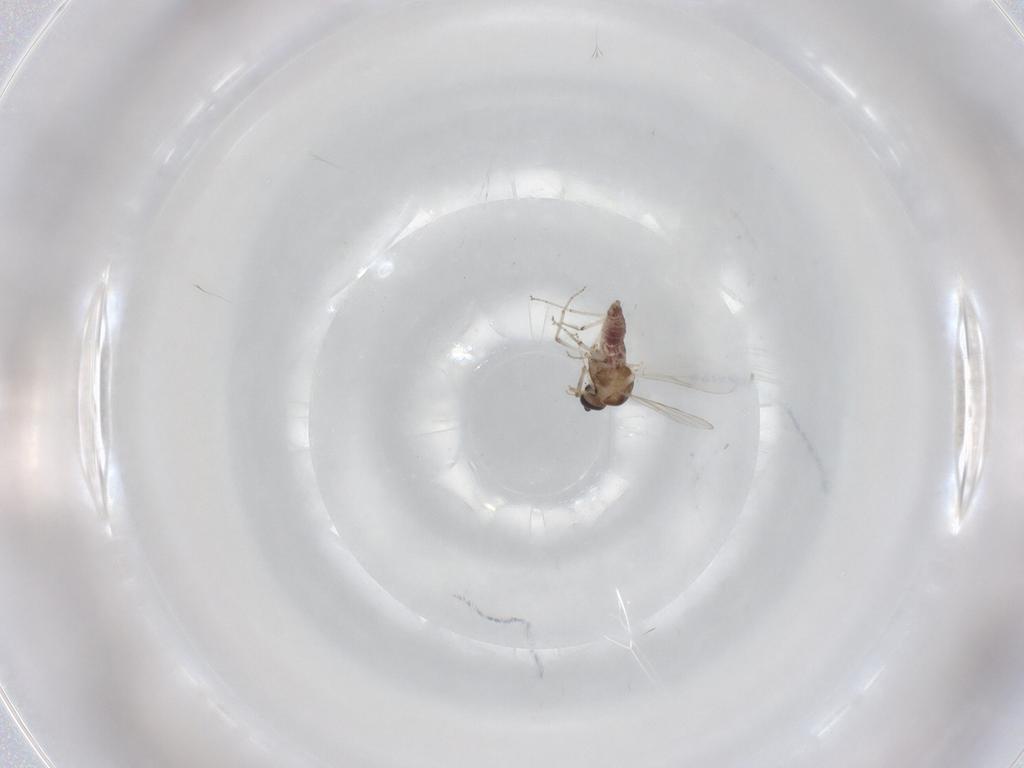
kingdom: Animalia
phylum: Arthropoda
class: Insecta
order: Diptera
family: Ceratopogonidae
